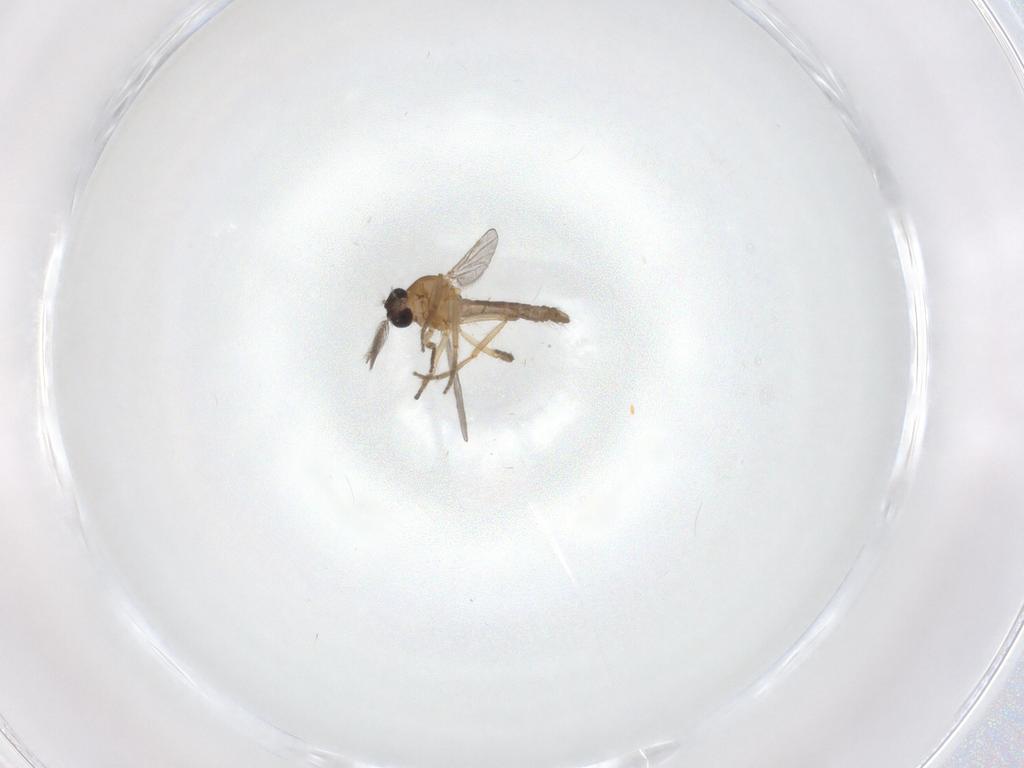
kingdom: Animalia
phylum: Arthropoda
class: Insecta
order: Diptera
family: Ceratopogonidae
